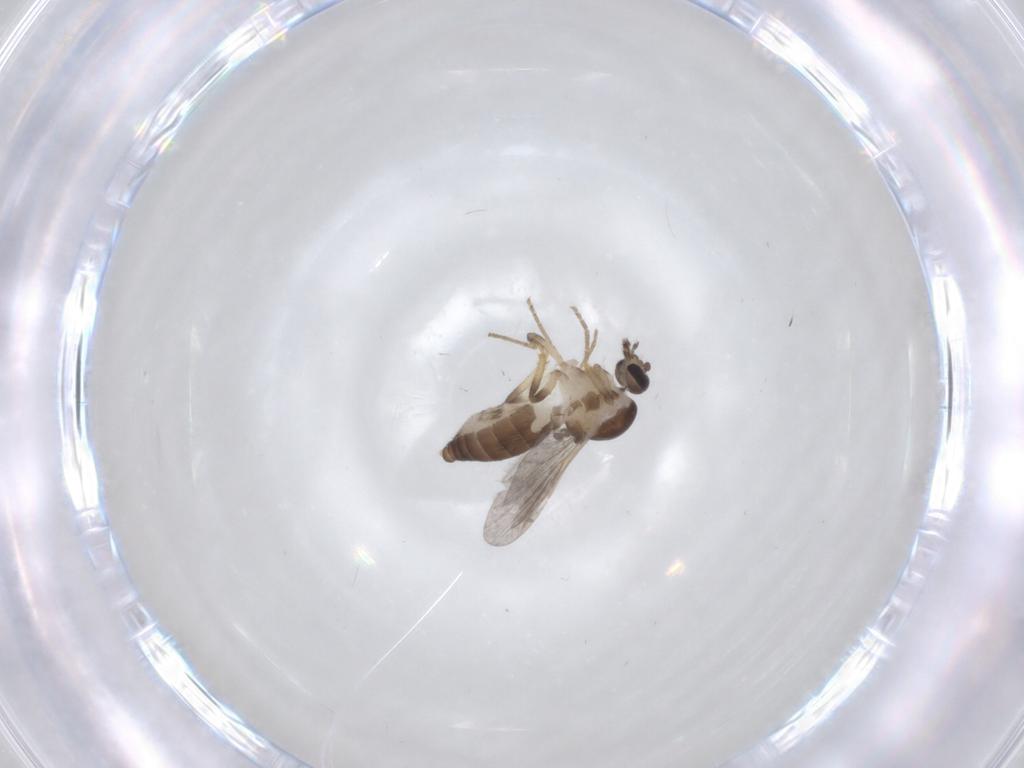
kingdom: Animalia
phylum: Arthropoda
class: Insecta
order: Diptera
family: Ceratopogonidae
